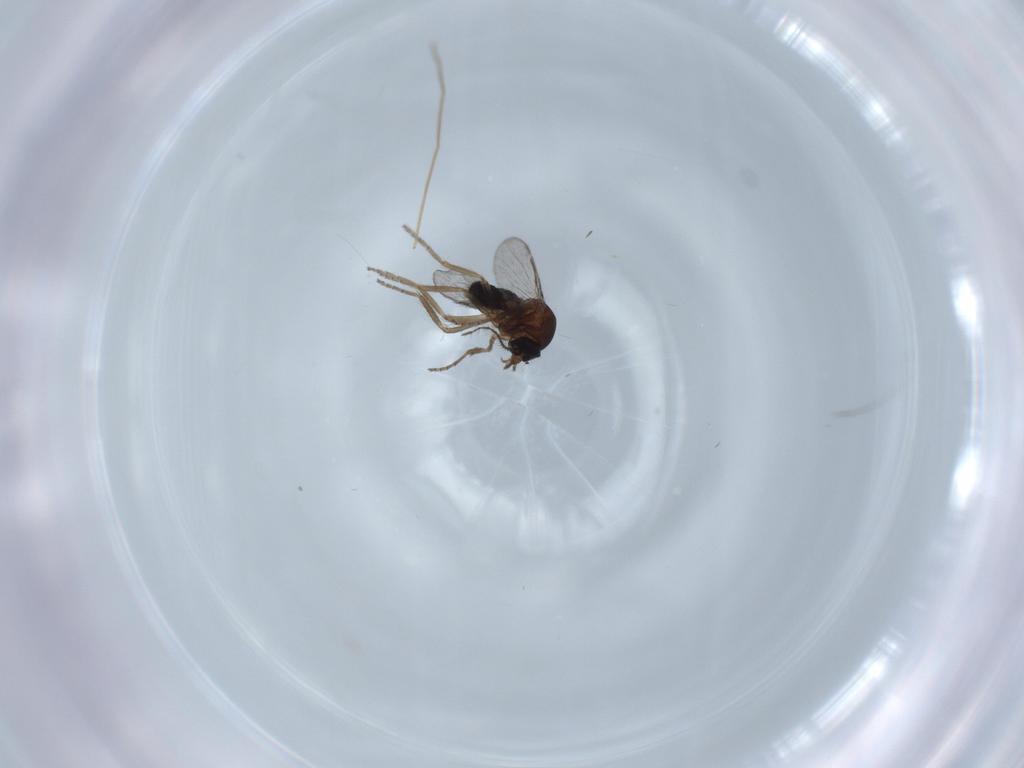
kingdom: Animalia
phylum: Arthropoda
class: Insecta
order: Diptera
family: Chironomidae
